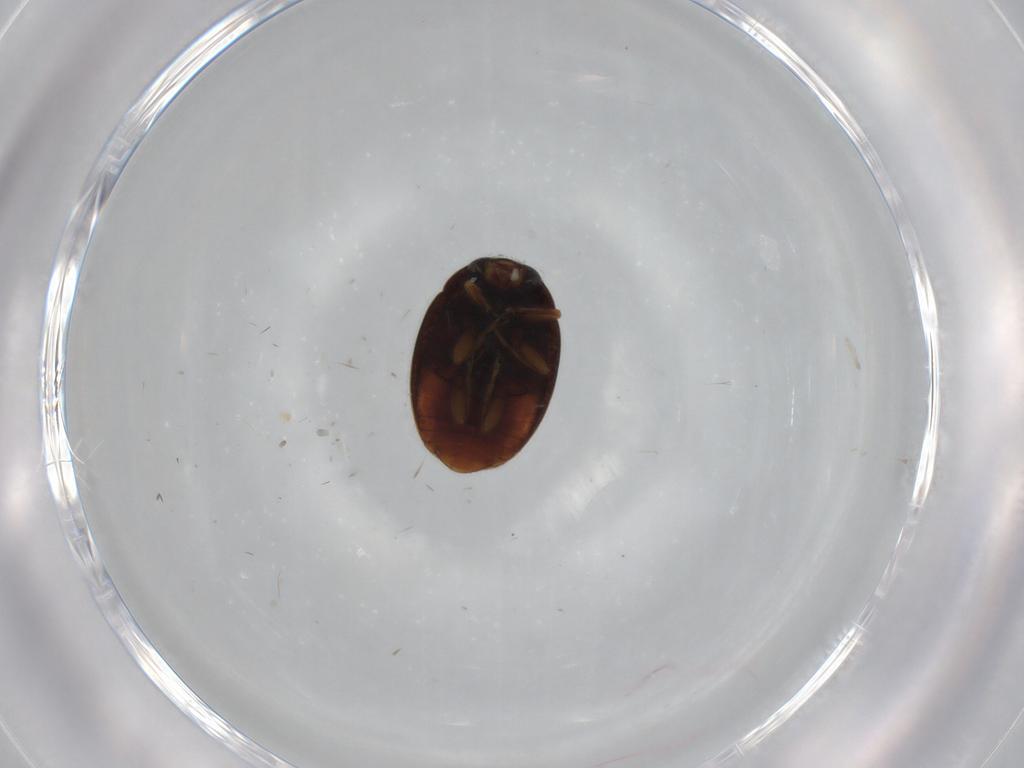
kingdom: Animalia
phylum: Arthropoda
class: Insecta
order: Coleoptera
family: Coccinellidae
